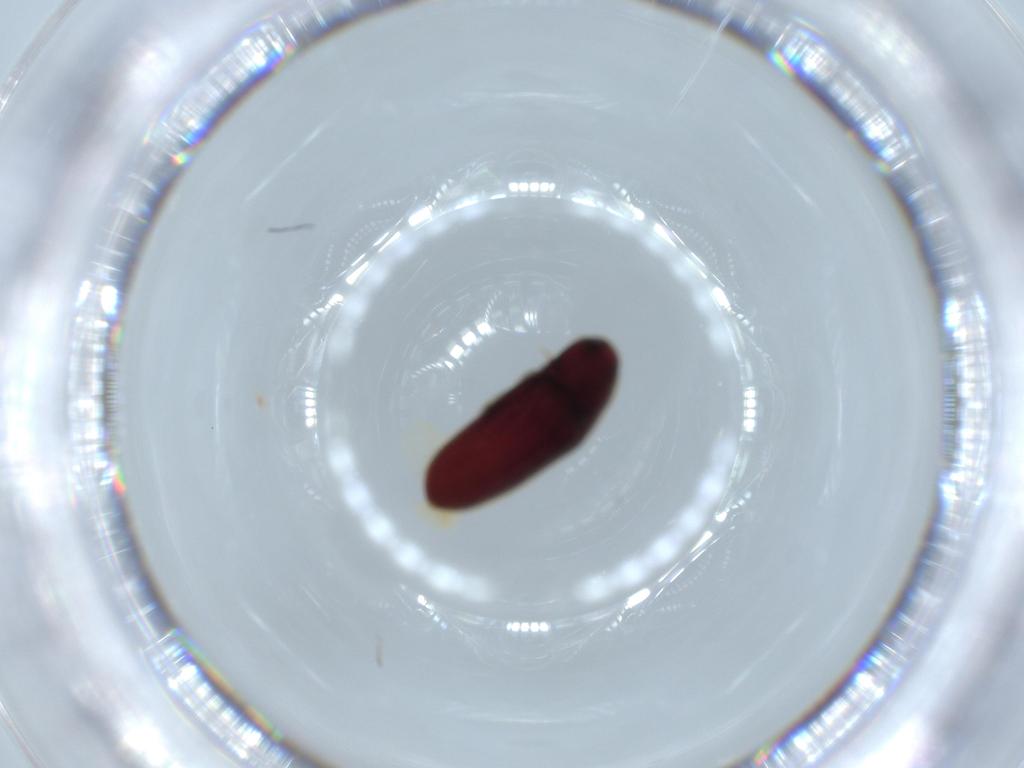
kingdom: Animalia
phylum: Arthropoda
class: Insecta
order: Coleoptera
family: Throscidae
